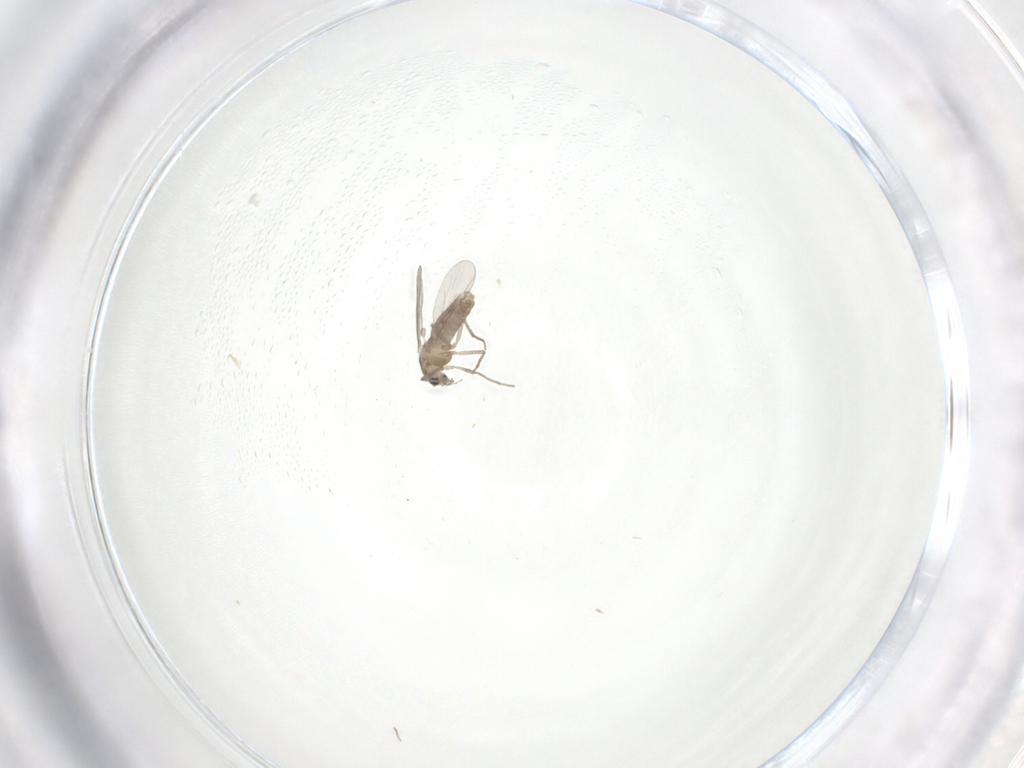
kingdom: Animalia
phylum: Arthropoda
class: Insecta
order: Diptera
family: Chironomidae
